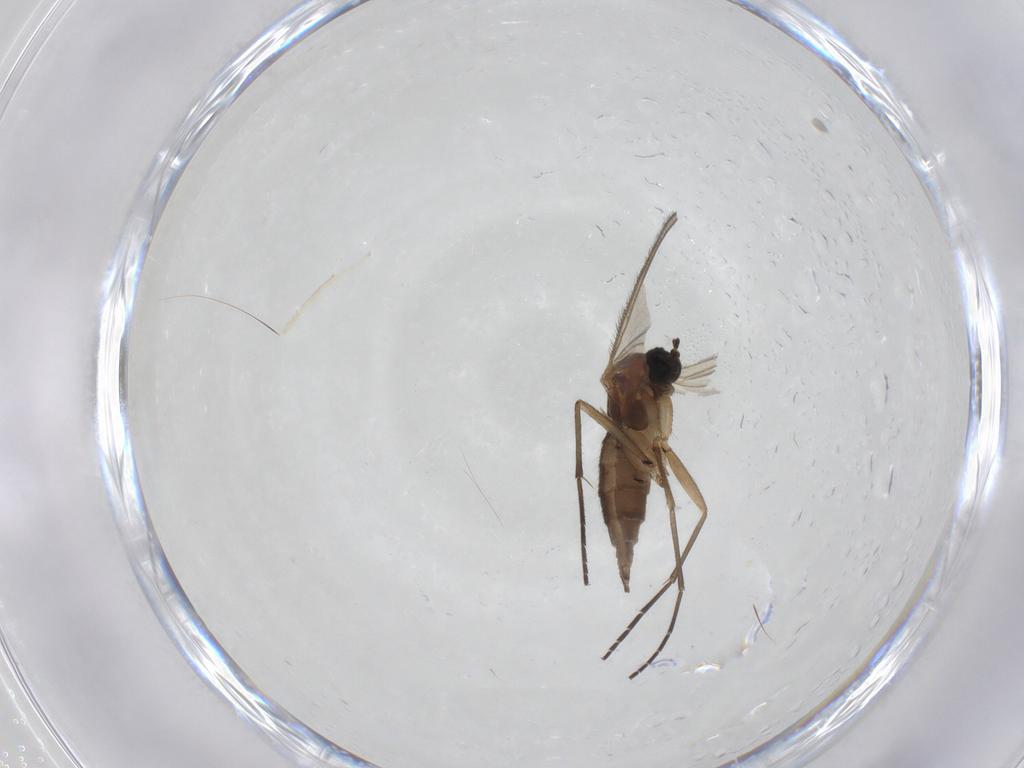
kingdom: Animalia
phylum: Arthropoda
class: Insecta
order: Diptera
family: Sciaridae
